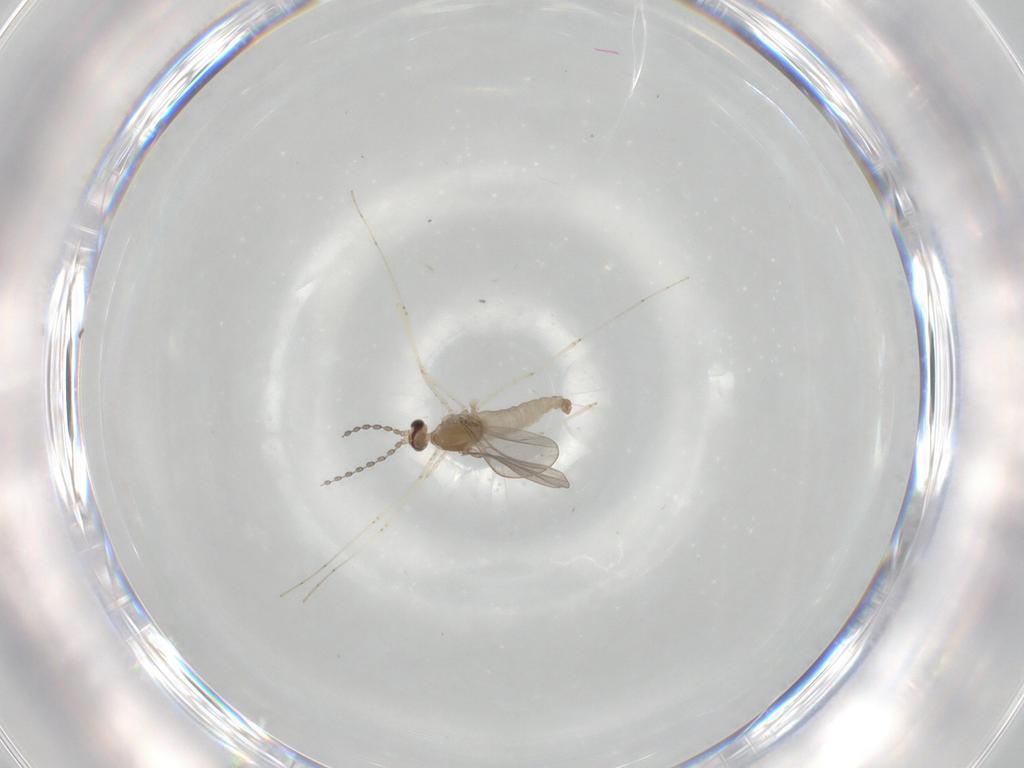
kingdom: Animalia
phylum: Arthropoda
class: Insecta
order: Diptera
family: Cecidomyiidae
